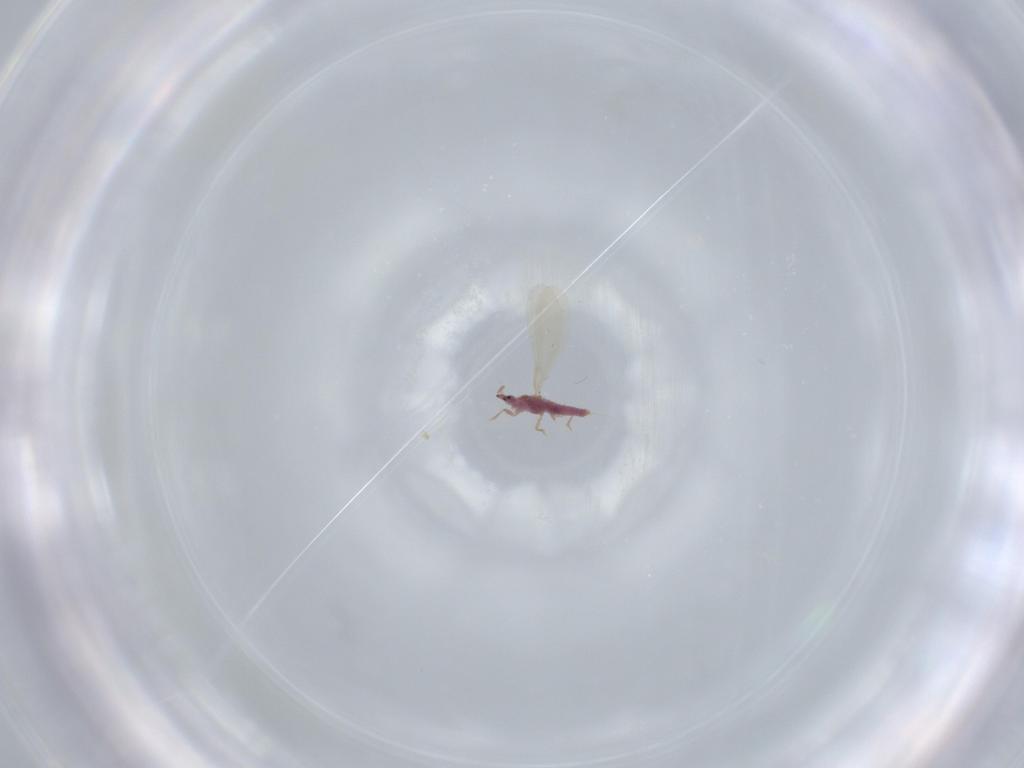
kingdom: Animalia
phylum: Arthropoda
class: Insecta
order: Hemiptera
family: Pseudococcidae
